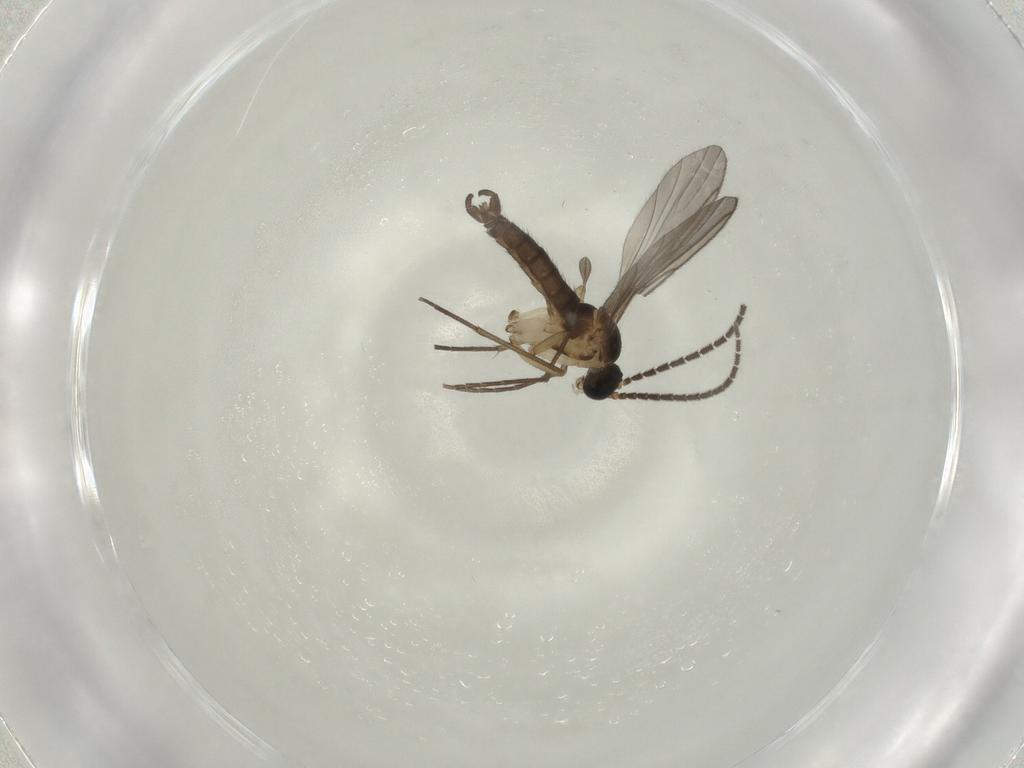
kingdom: Animalia
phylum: Arthropoda
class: Insecta
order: Diptera
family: Sciaridae
